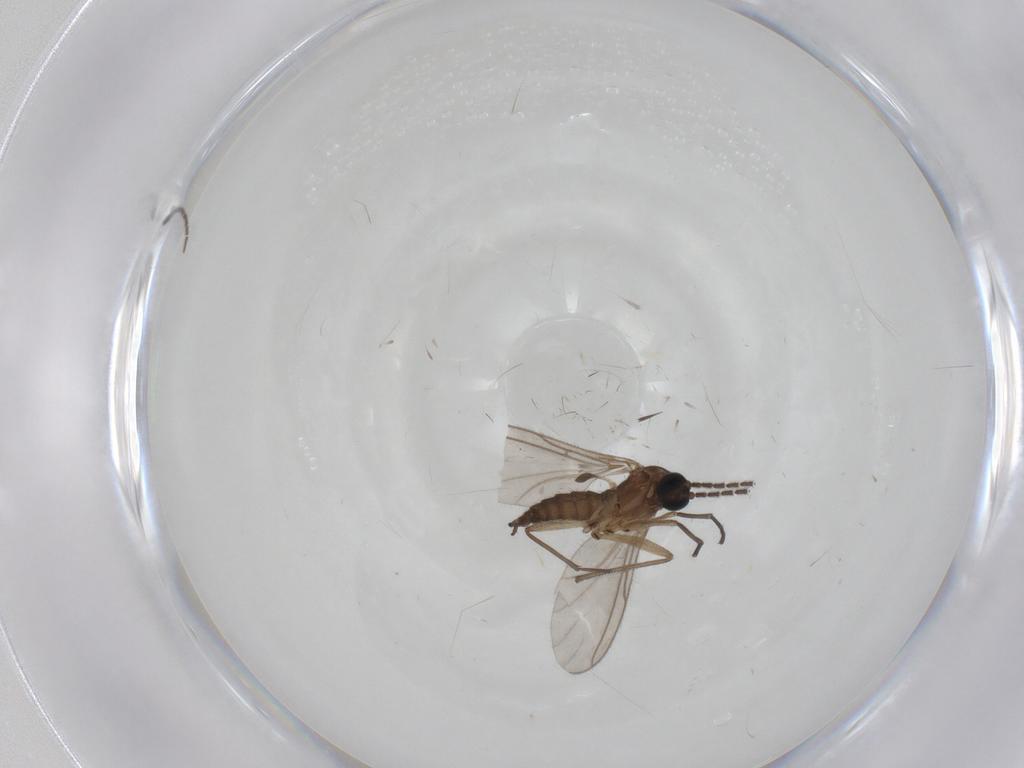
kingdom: Animalia
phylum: Arthropoda
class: Insecta
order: Diptera
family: Sciaridae
